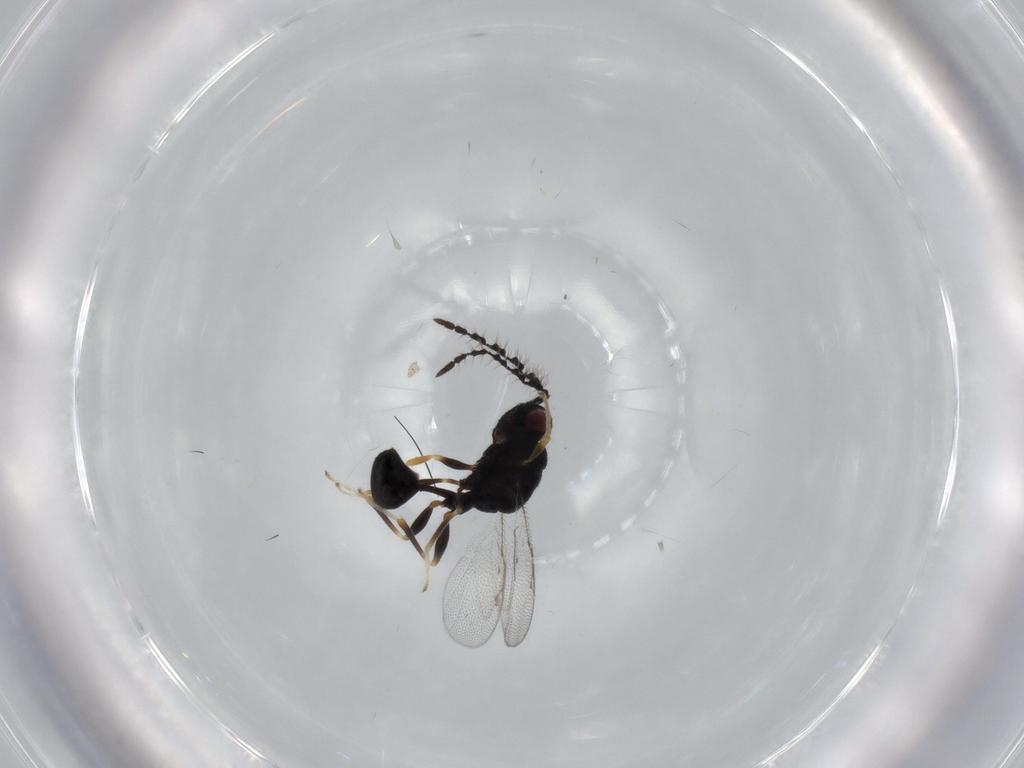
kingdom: Animalia
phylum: Arthropoda
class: Insecta
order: Hymenoptera
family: Eurytomidae
